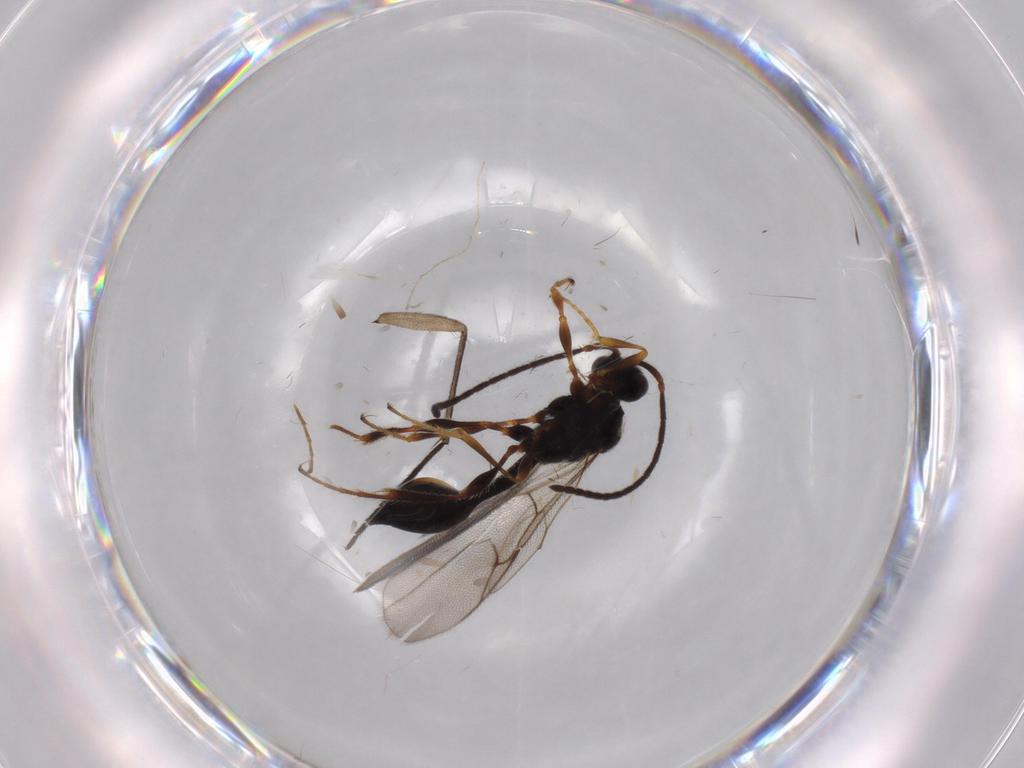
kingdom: Animalia
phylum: Arthropoda
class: Insecta
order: Hymenoptera
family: Diapriidae
